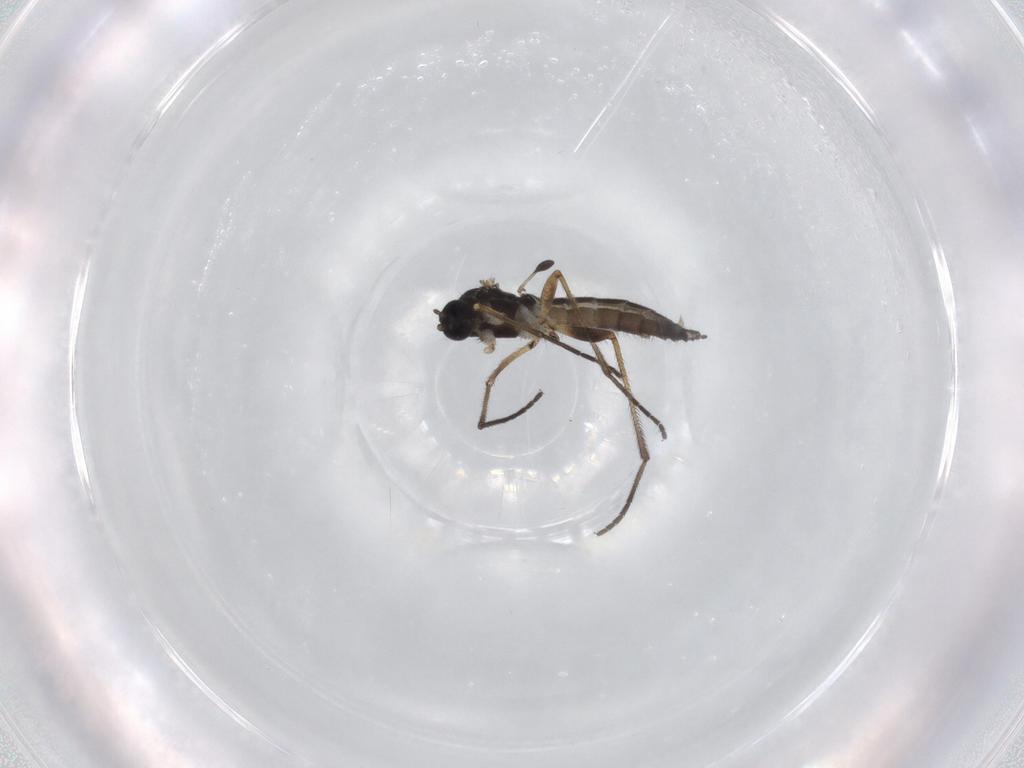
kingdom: Animalia
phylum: Arthropoda
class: Insecta
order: Diptera
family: Sciaridae
